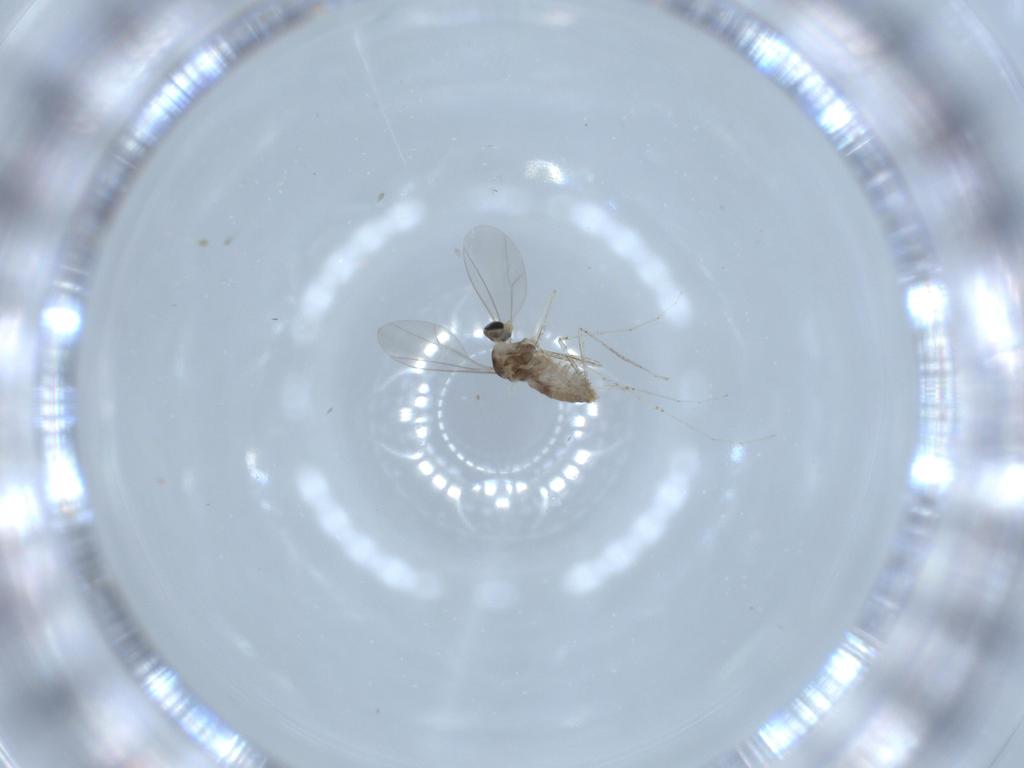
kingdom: Animalia
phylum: Arthropoda
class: Insecta
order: Diptera
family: Cecidomyiidae
